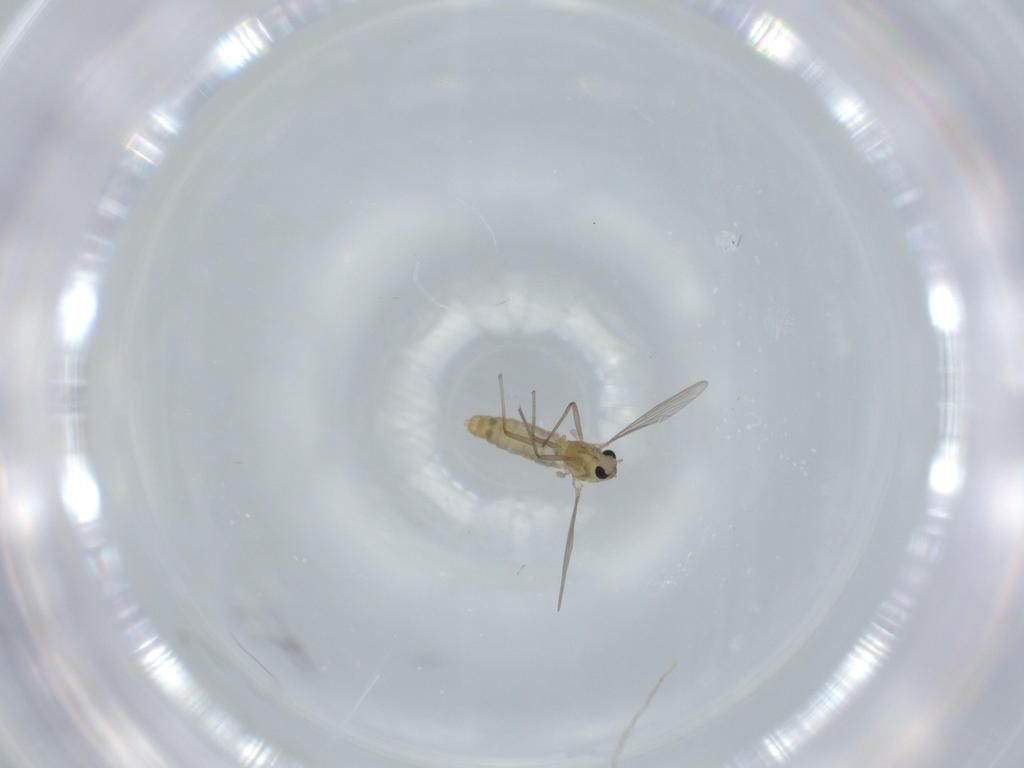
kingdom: Animalia
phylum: Arthropoda
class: Insecta
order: Diptera
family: Chironomidae
